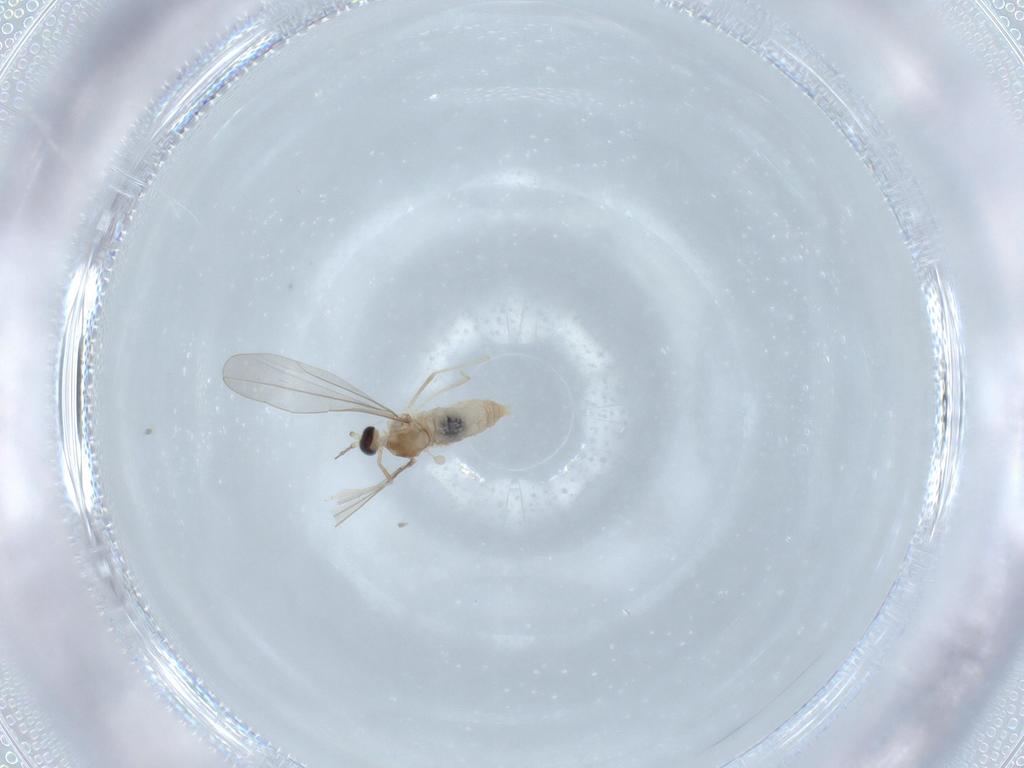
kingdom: Animalia
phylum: Arthropoda
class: Insecta
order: Diptera
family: Cecidomyiidae
